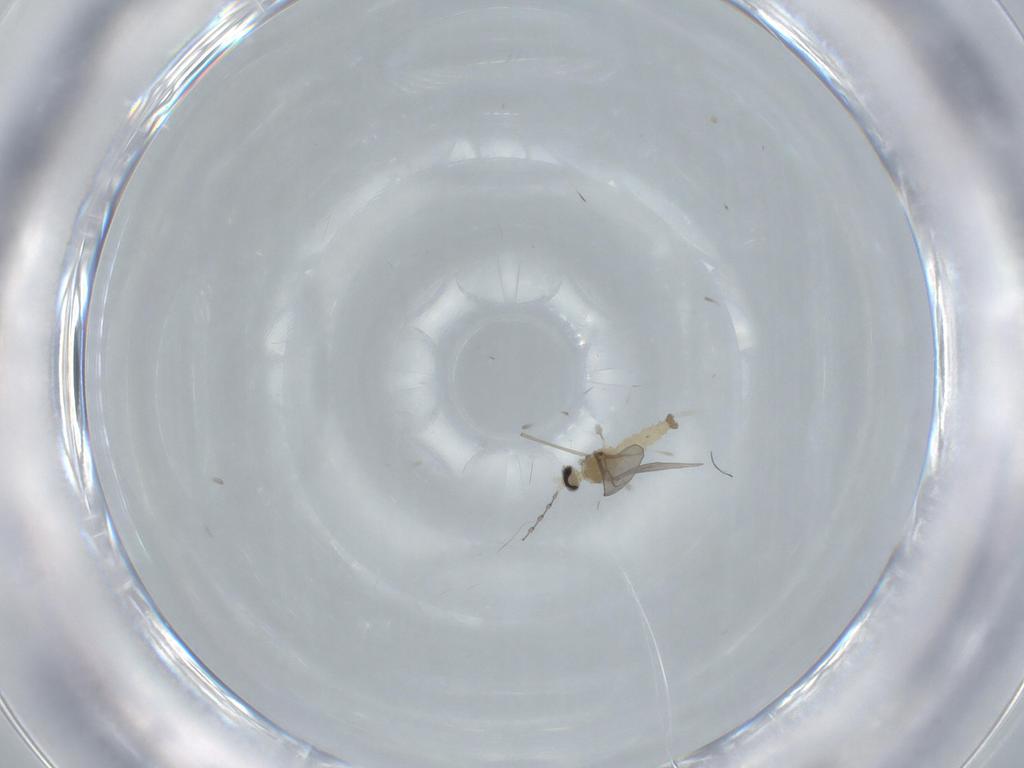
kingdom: Animalia
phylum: Arthropoda
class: Insecta
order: Diptera
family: Cecidomyiidae
